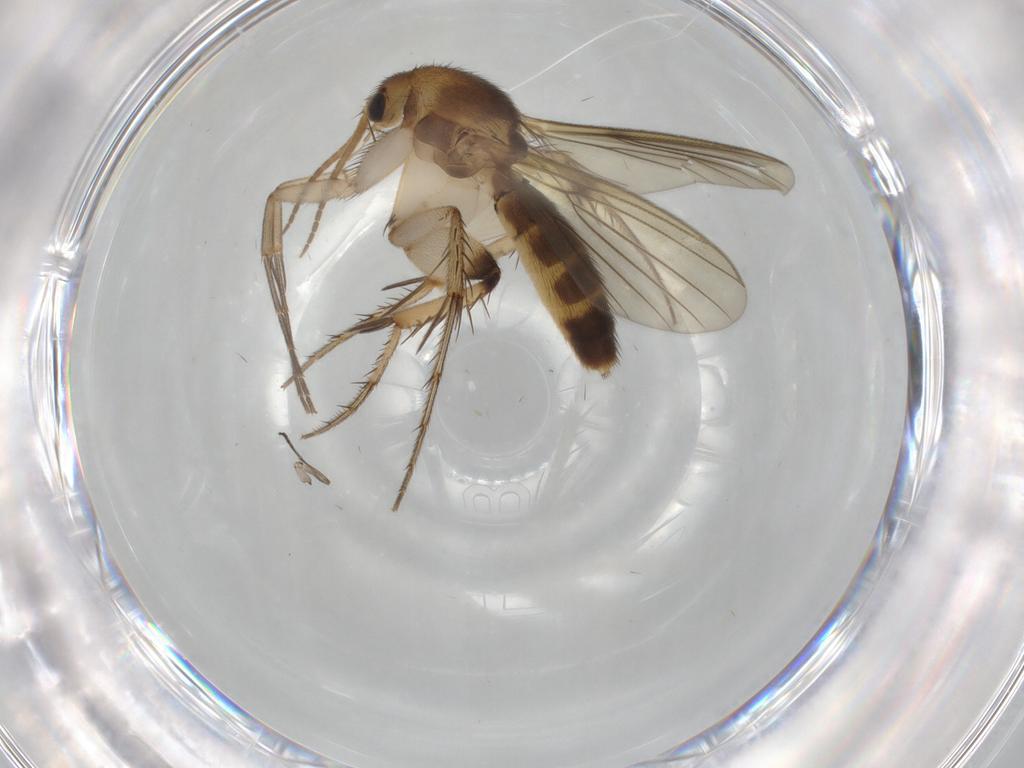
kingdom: Animalia
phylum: Arthropoda
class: Insecta
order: Diptera
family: Mycetophilidae
